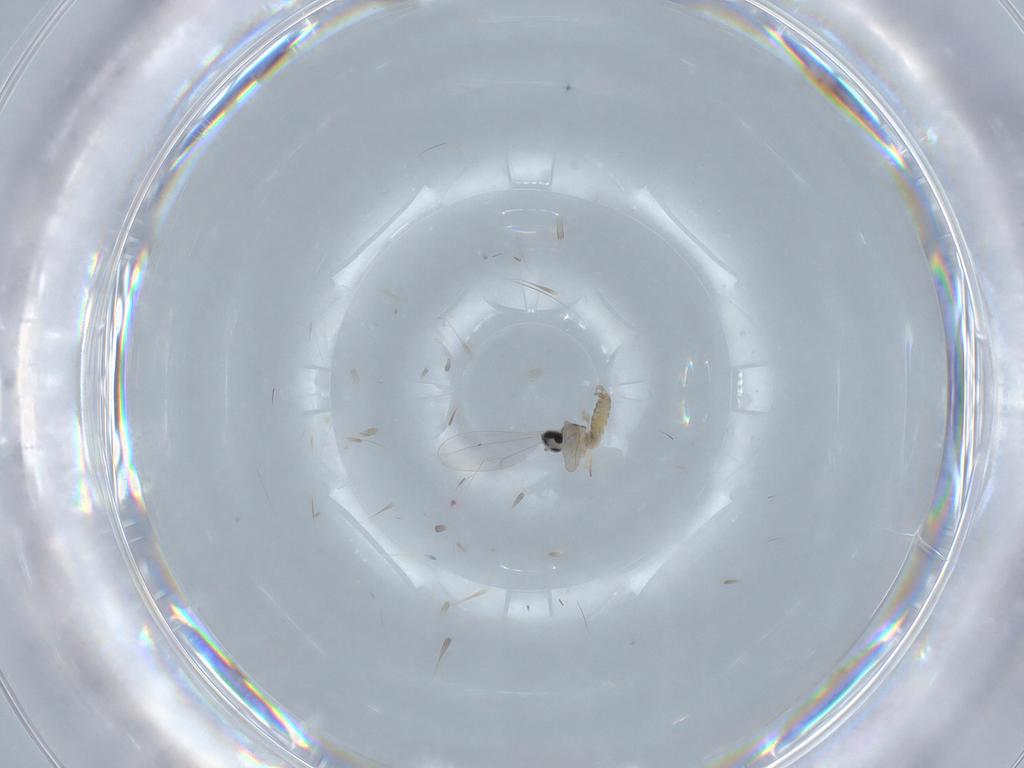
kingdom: Animalia
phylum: Arthropoda
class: Insecta
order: Diptera
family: Cecidomyiidae
